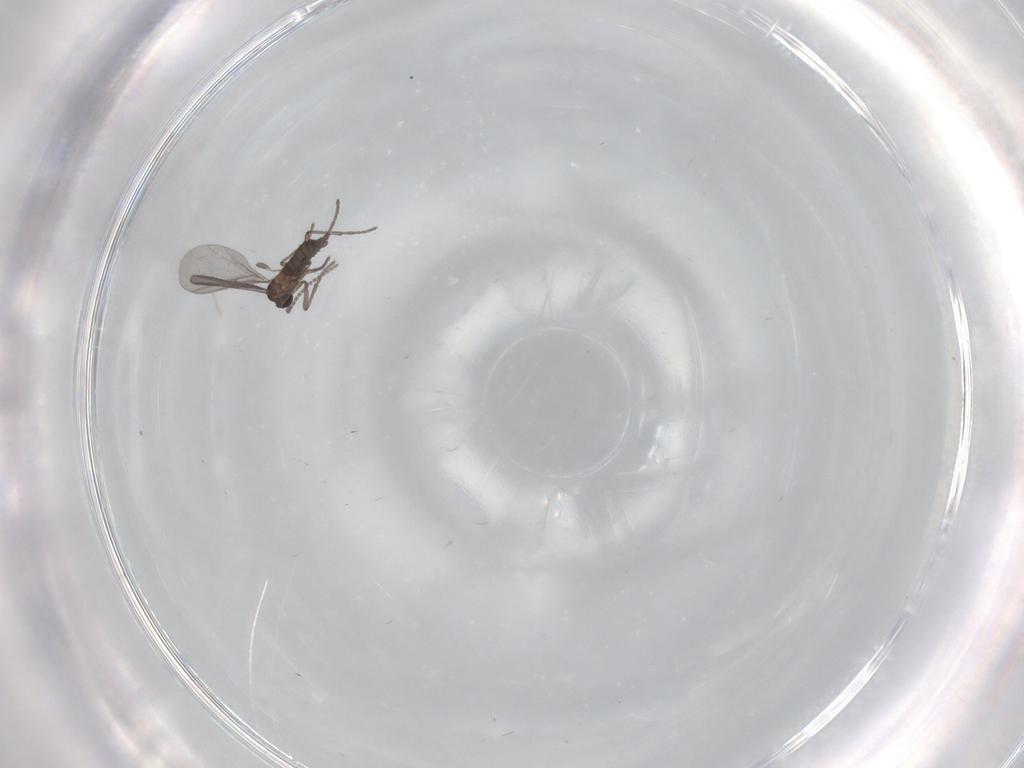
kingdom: Animalia
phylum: Arthropoda
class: Insecta
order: Diptera
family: Sciaridae
